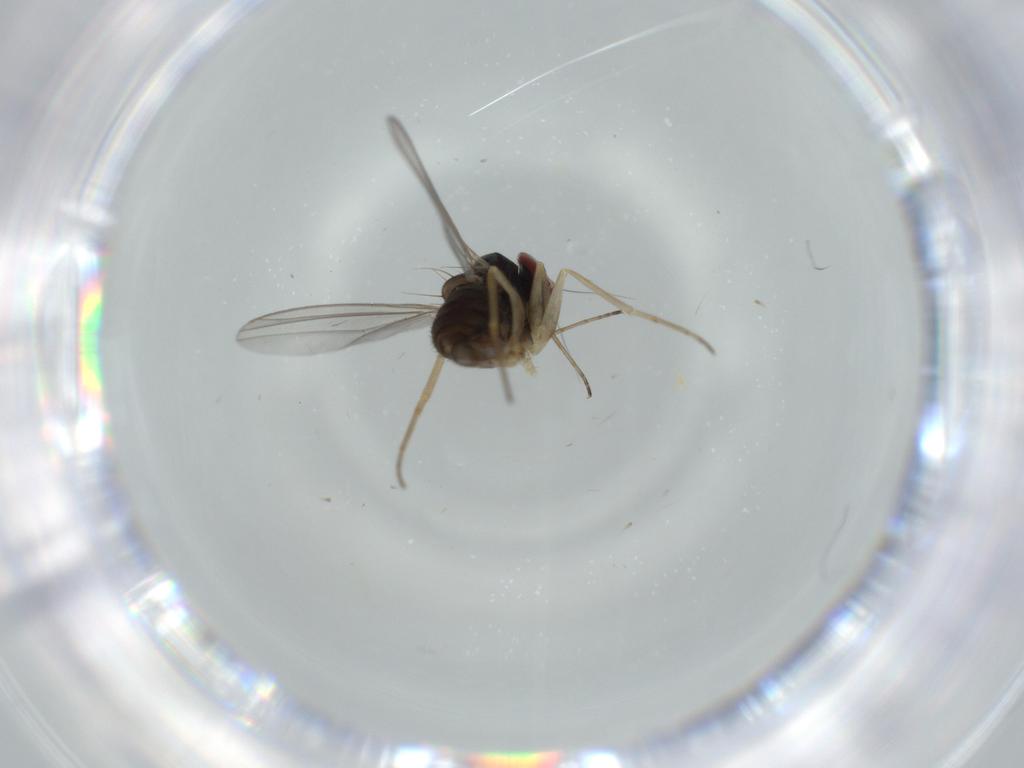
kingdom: Animalia
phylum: Arthropoda
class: Insecta
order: Diptera
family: Dolichopodidae
